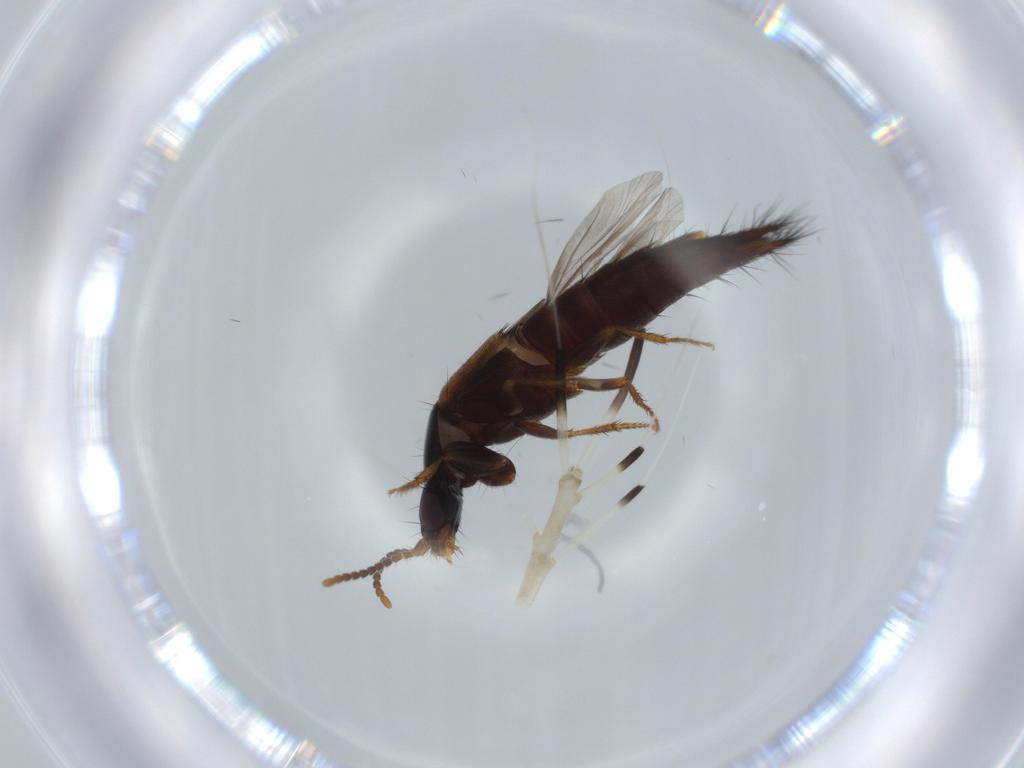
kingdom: Animalia
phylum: Arthropoda
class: Insecta
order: Coleoptera
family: Staphylinidae
